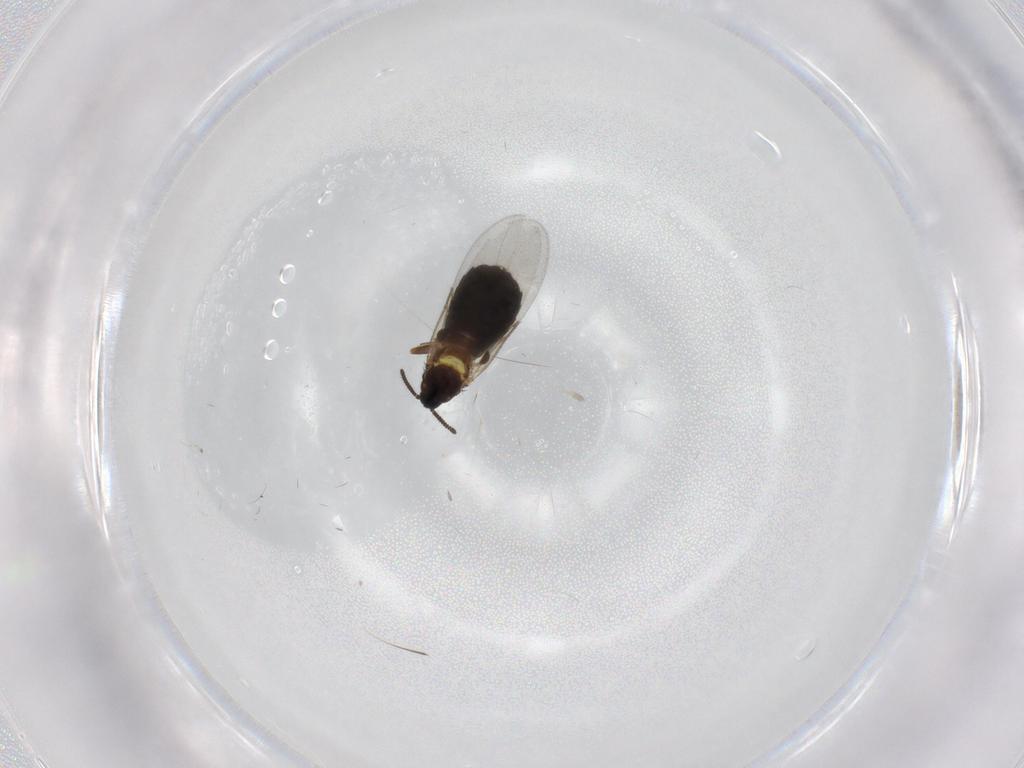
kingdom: Animalia
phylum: Arthropoda
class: Insecta
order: Diptera
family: Scatopsidae
